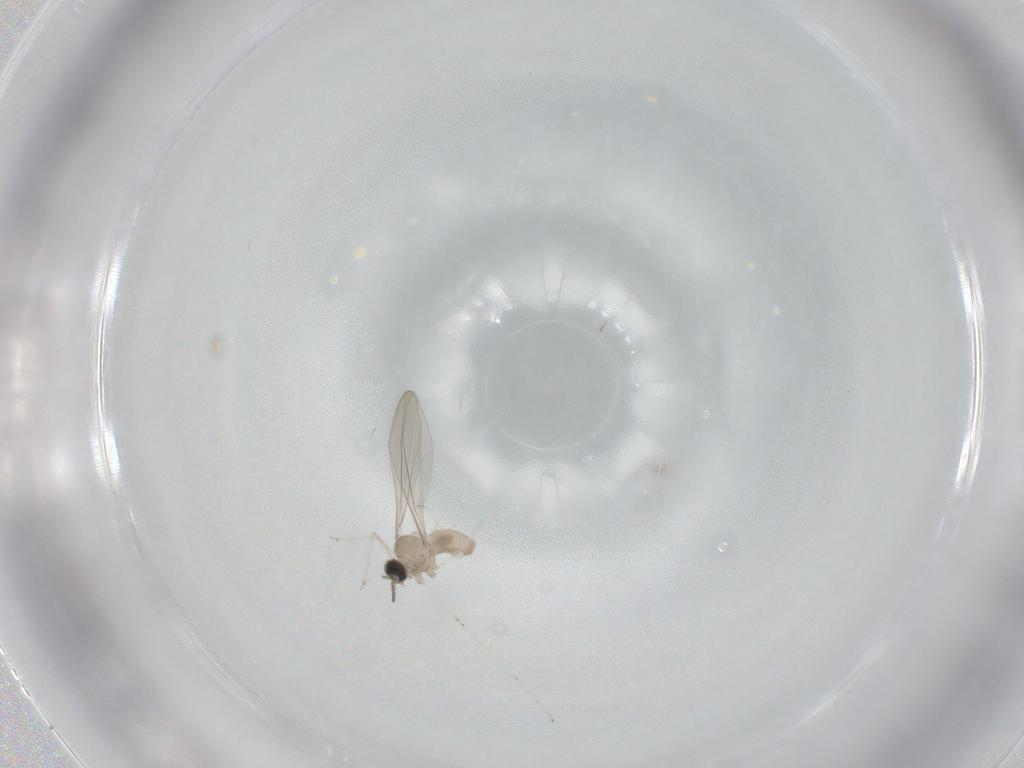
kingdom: Animalia
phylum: Arthropoda
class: Insecta
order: Diptera
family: Cecidomyiidae
